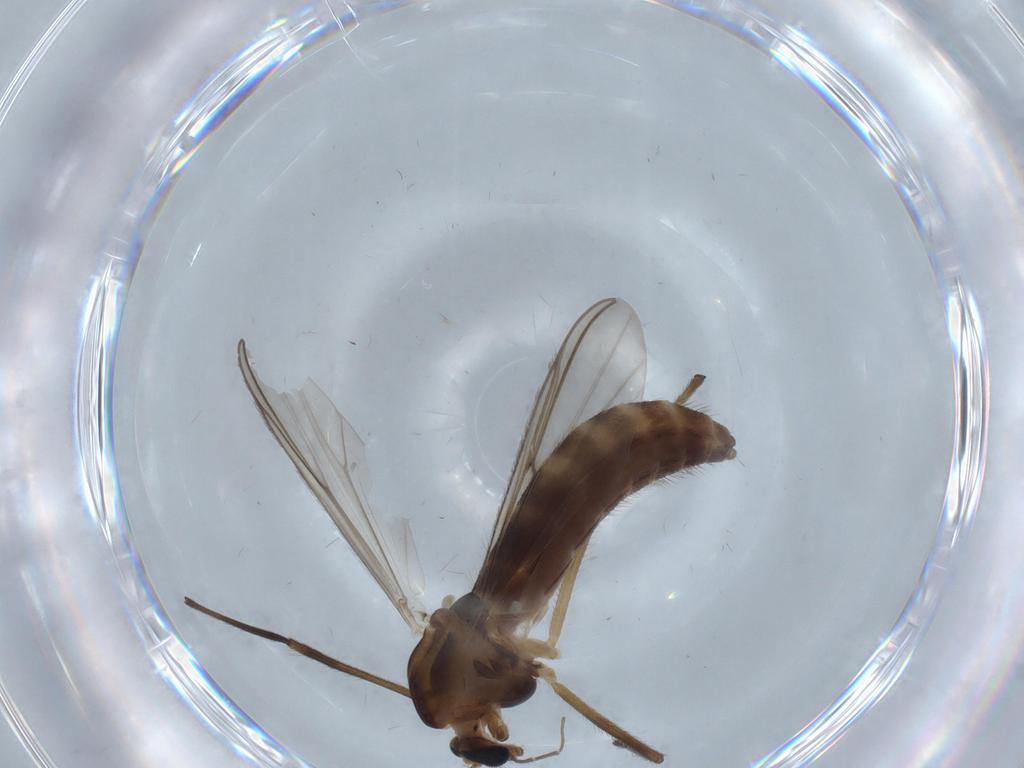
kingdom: Animalia
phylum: Arthropoda
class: Insecta
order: Diptera
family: Chironomidae
